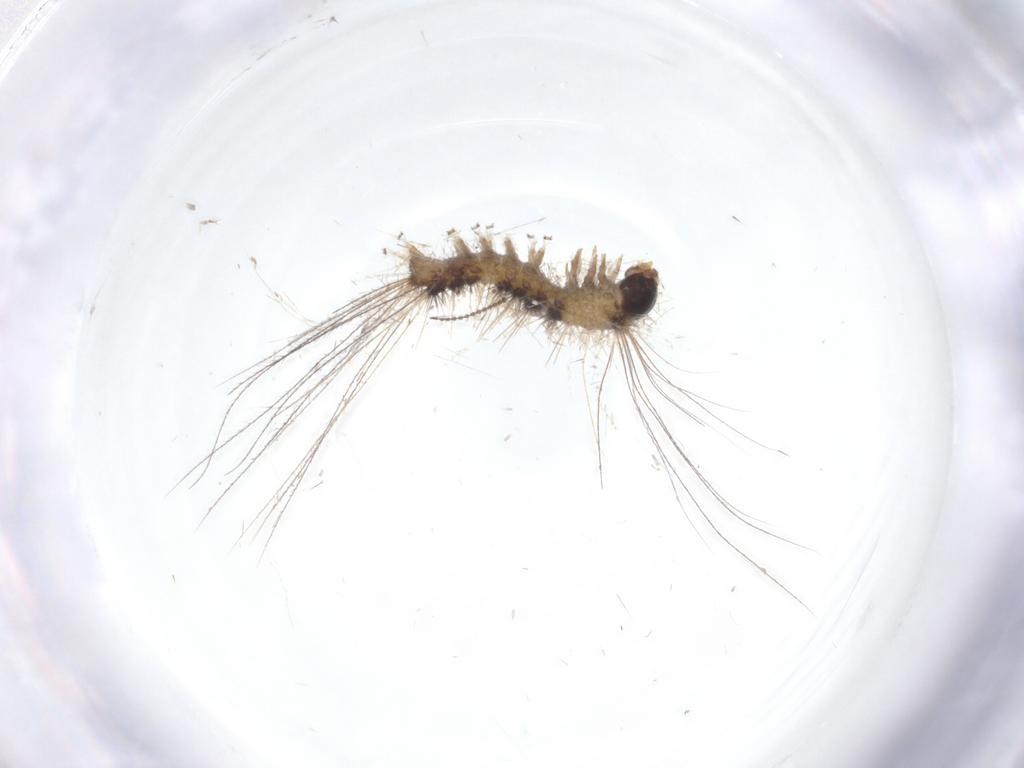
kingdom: Animalia
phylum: Arthropoda
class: Insecta
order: Lepidoptera
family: Erebidae
